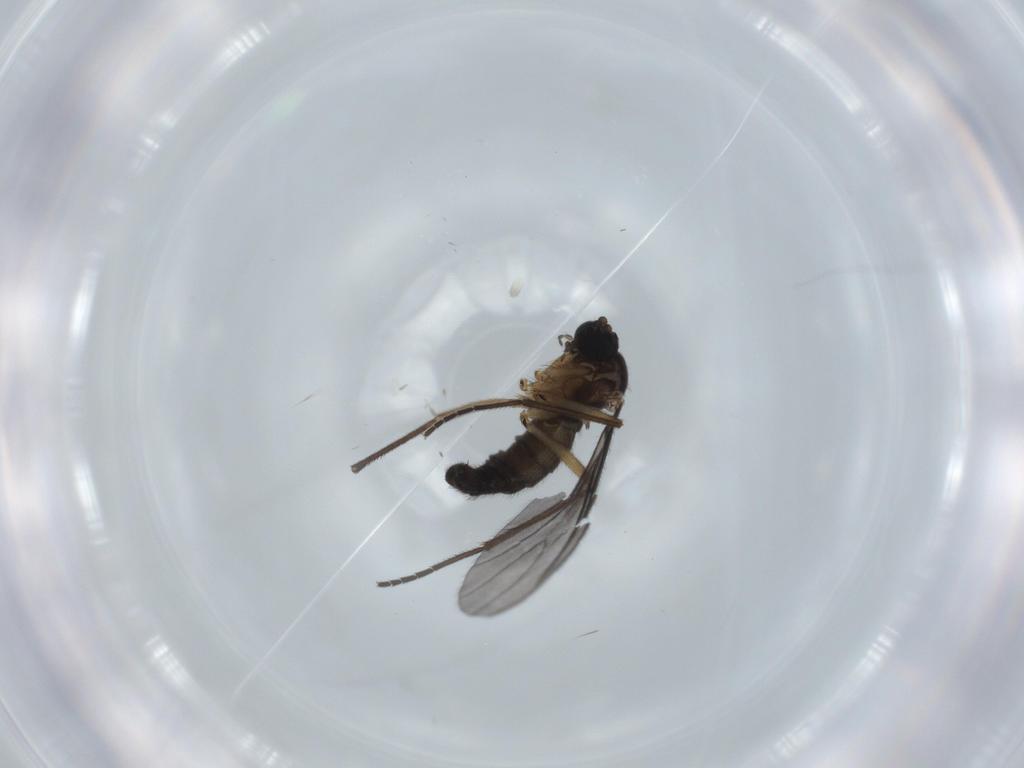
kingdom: Animalia
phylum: Arthropoda
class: Insecta
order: Diptera
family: Sciaridae
